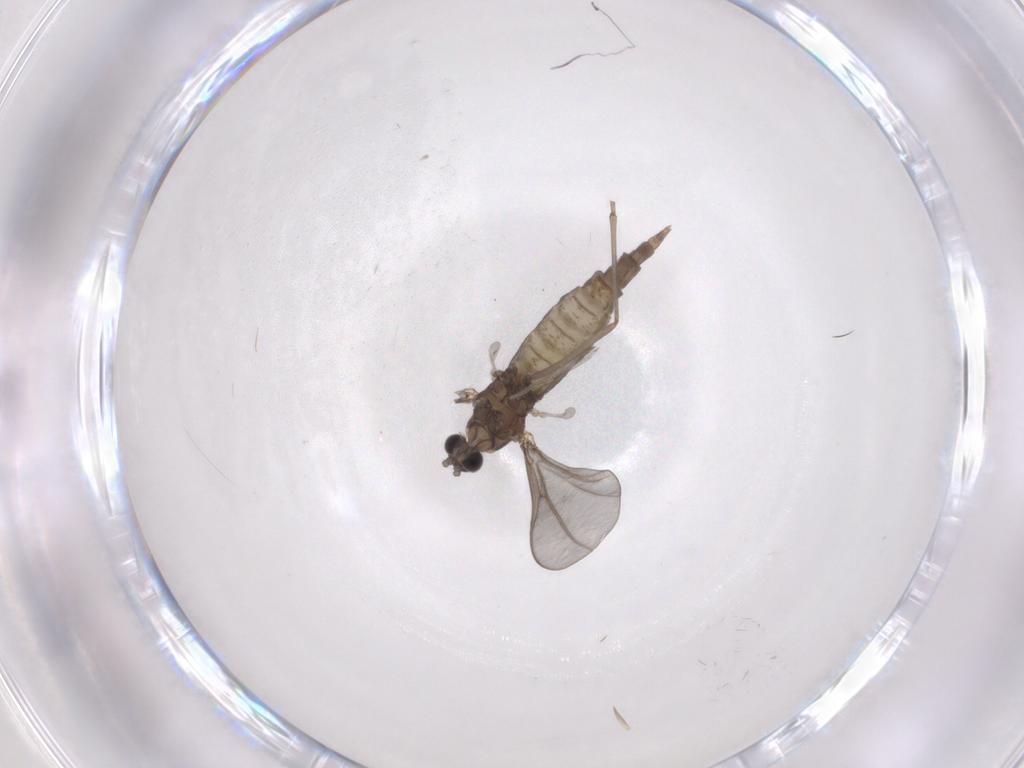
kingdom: Animalia
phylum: Arthropoda
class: Insecta
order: Diptera
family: Cecidomyiidae
